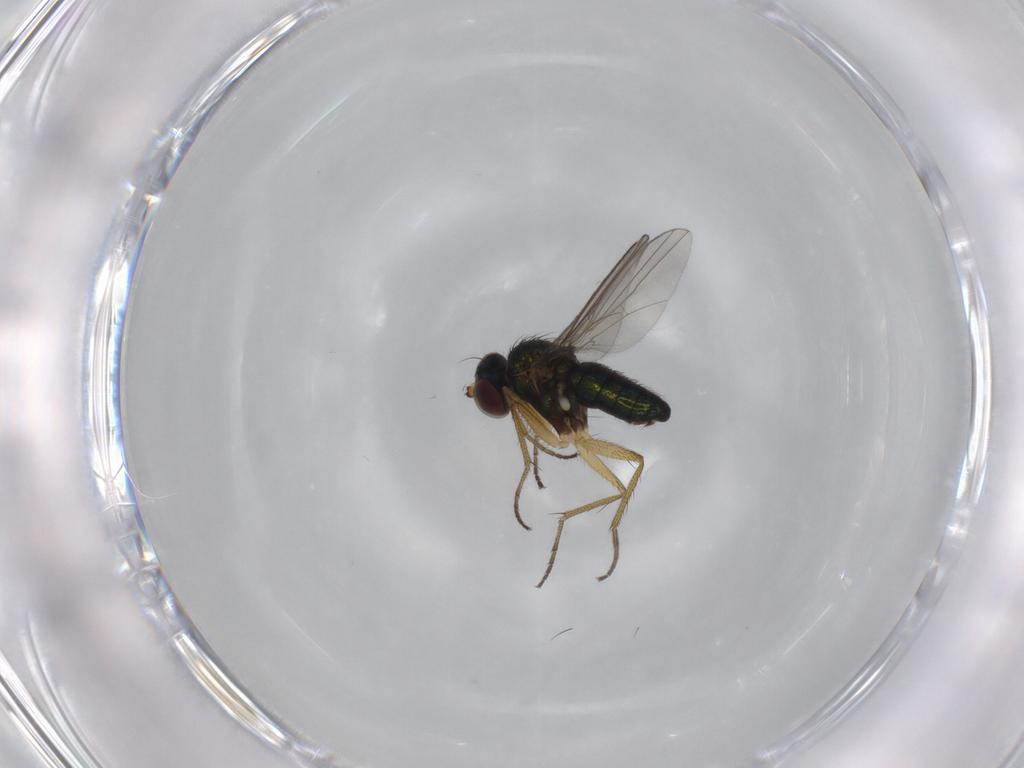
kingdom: Animalia
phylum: Arthropoda
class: Insecta
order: Diptera
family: Dolichopodidae
